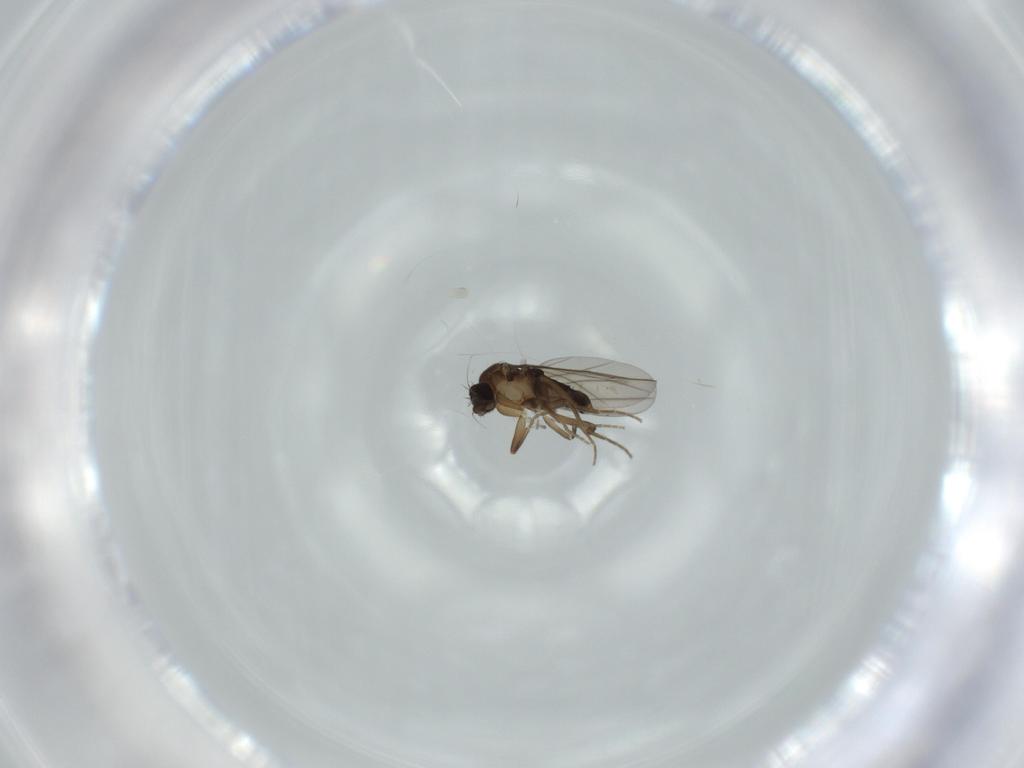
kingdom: Animalia
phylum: Arthropoda
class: Insecta
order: Diptera
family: Phoridae
